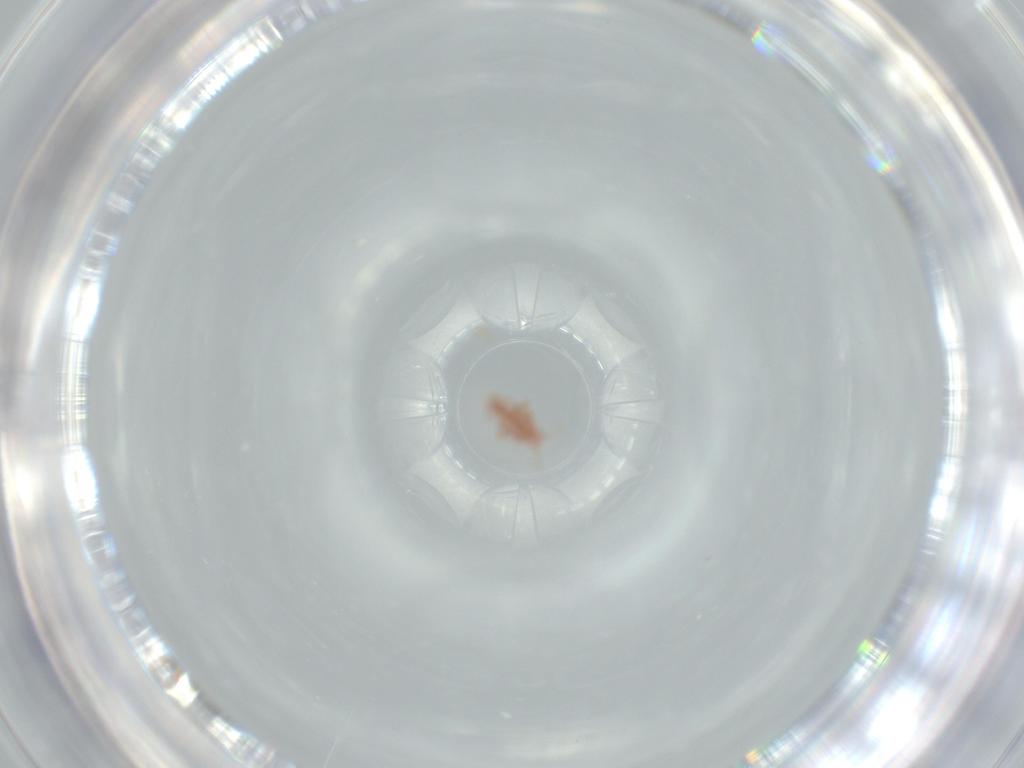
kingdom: Animalia
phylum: Arthropoda
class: Insecta
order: Diptera
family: Sciaridae
